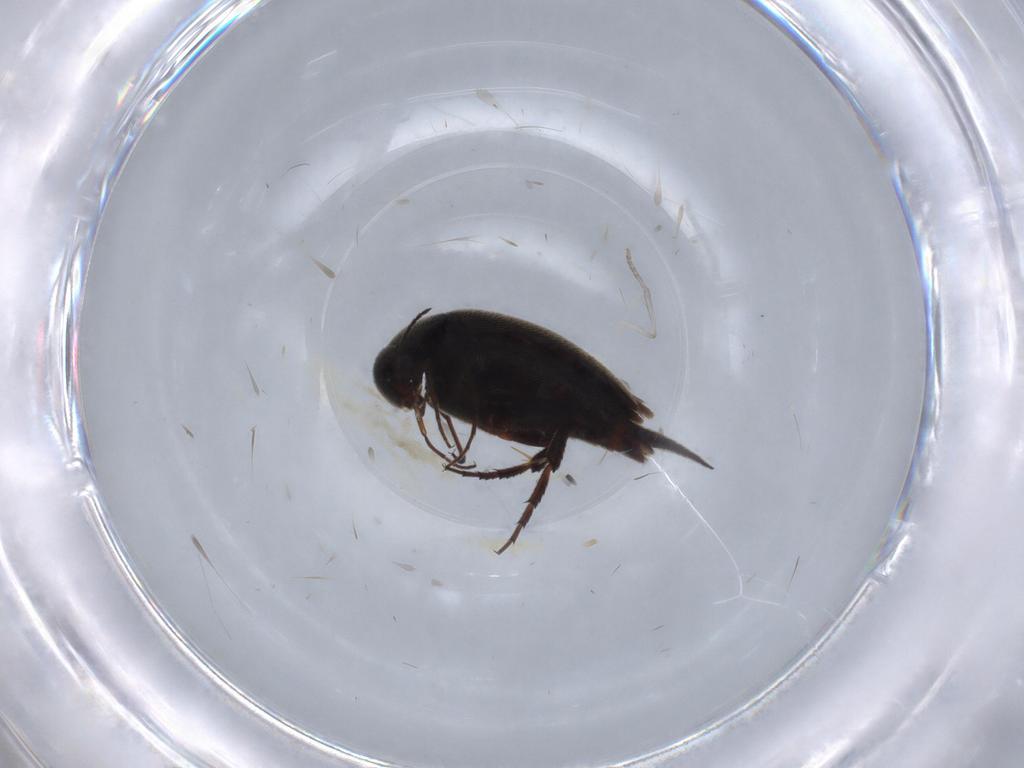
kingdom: Animalia
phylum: Arthropoda
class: Insecta
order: Coleoptera
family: Mordellidae
